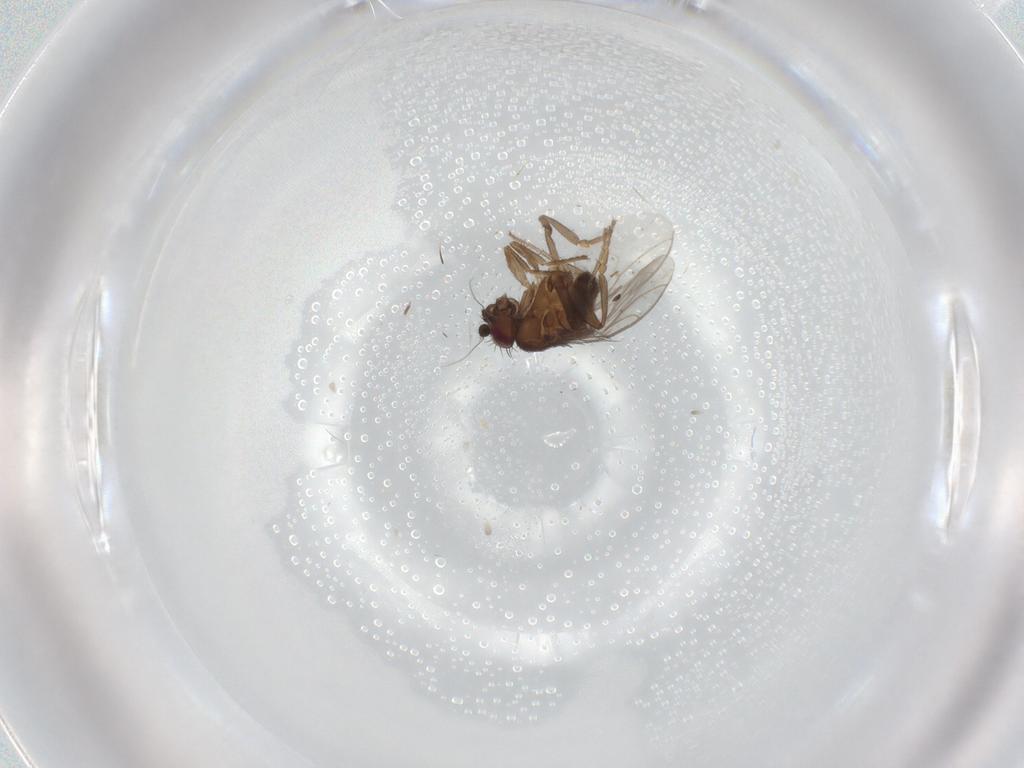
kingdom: Animalia
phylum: Arthropoda
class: Insecta
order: Diptera
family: Sphaeroceridae
